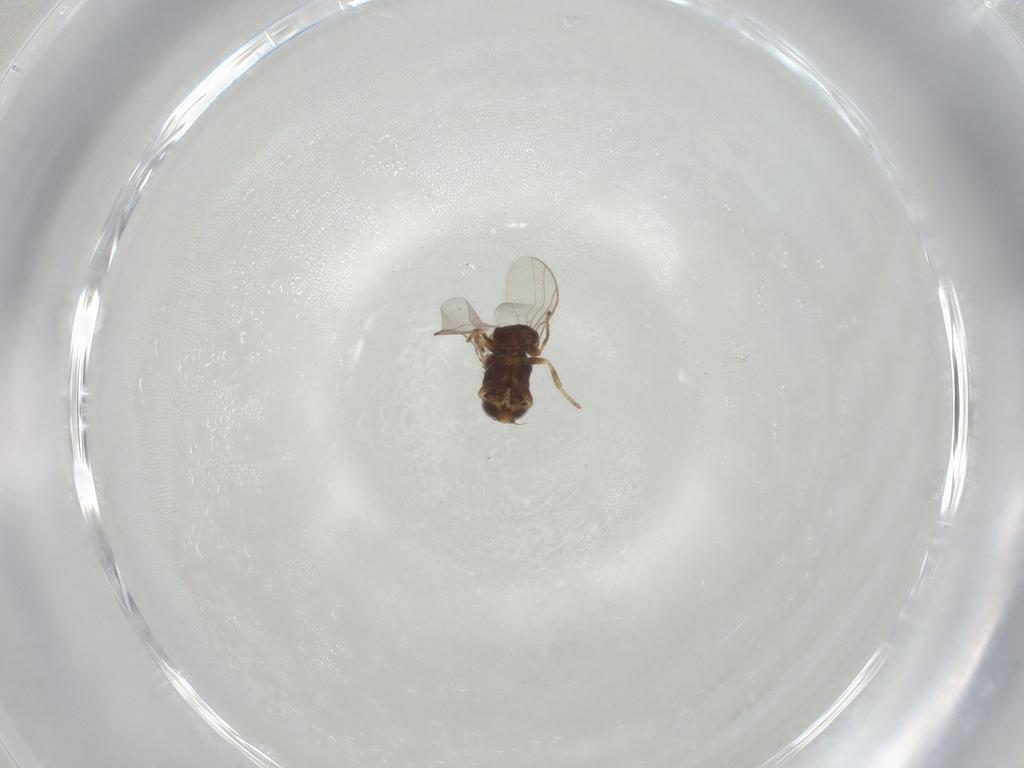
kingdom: Animalia
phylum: Arthropoda
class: Insecta
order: Diptera
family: Chloropidae
